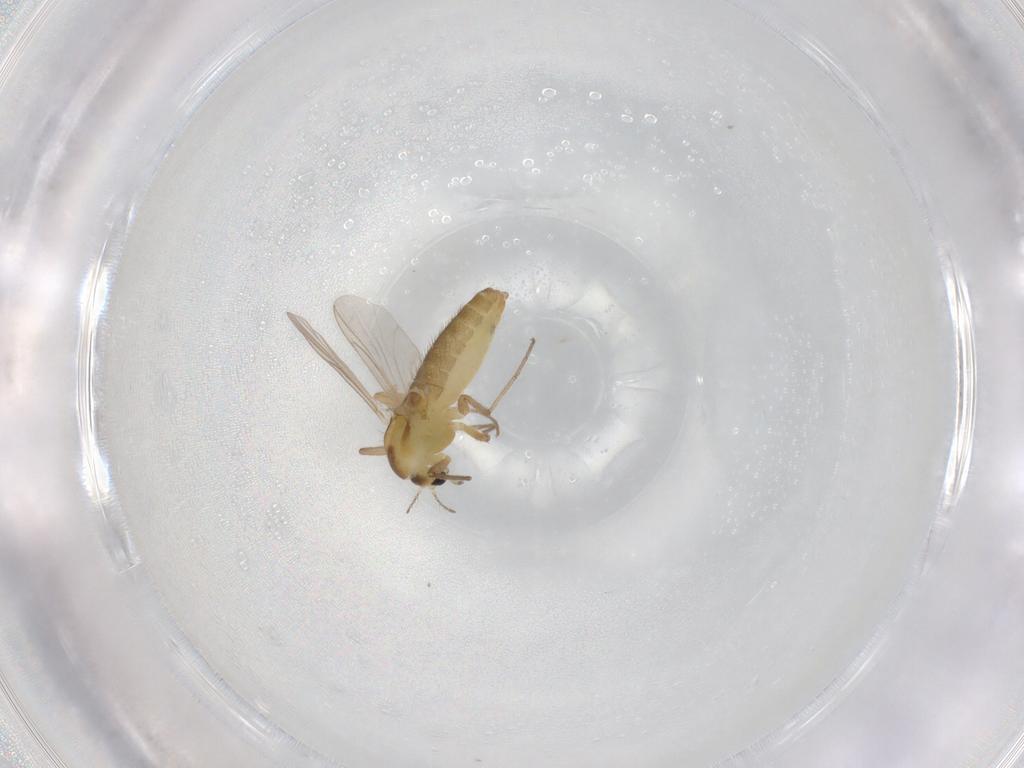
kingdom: Animalia
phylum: Arthropoda
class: Insecta
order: Diptera
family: Chironomidae
